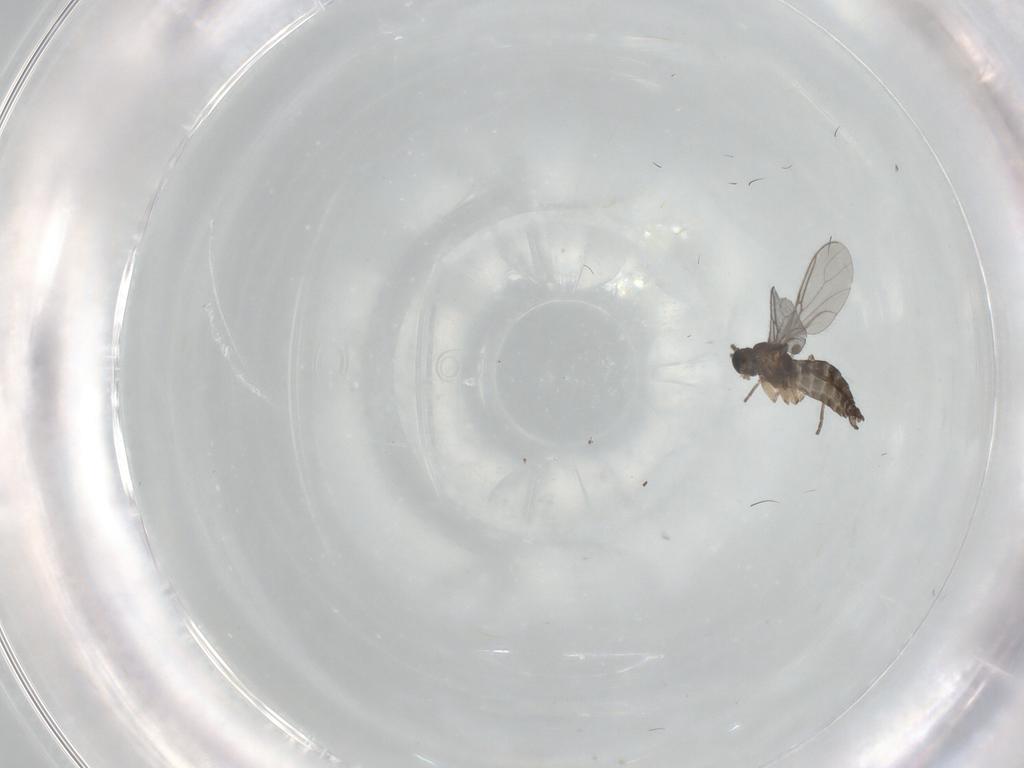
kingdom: Animalia
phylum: Arthropoda
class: Insecta
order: Diptera
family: Sciaridae
